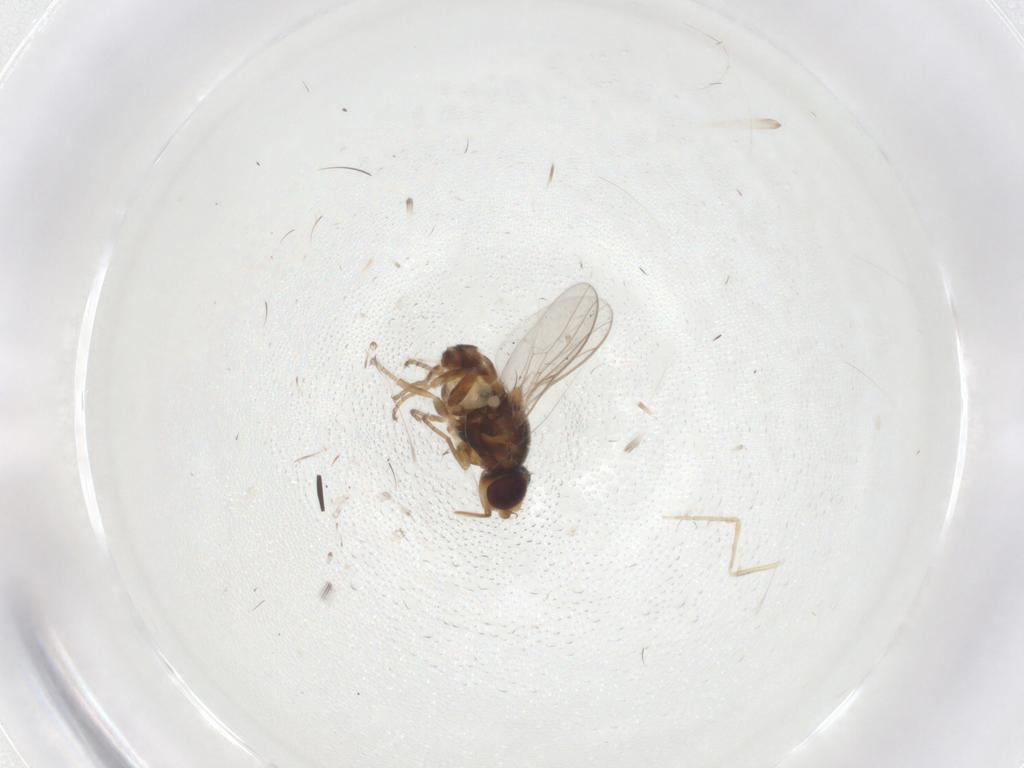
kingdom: Animalia
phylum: Arthropoda
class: Insecta
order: Diptera
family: Chloropidae
